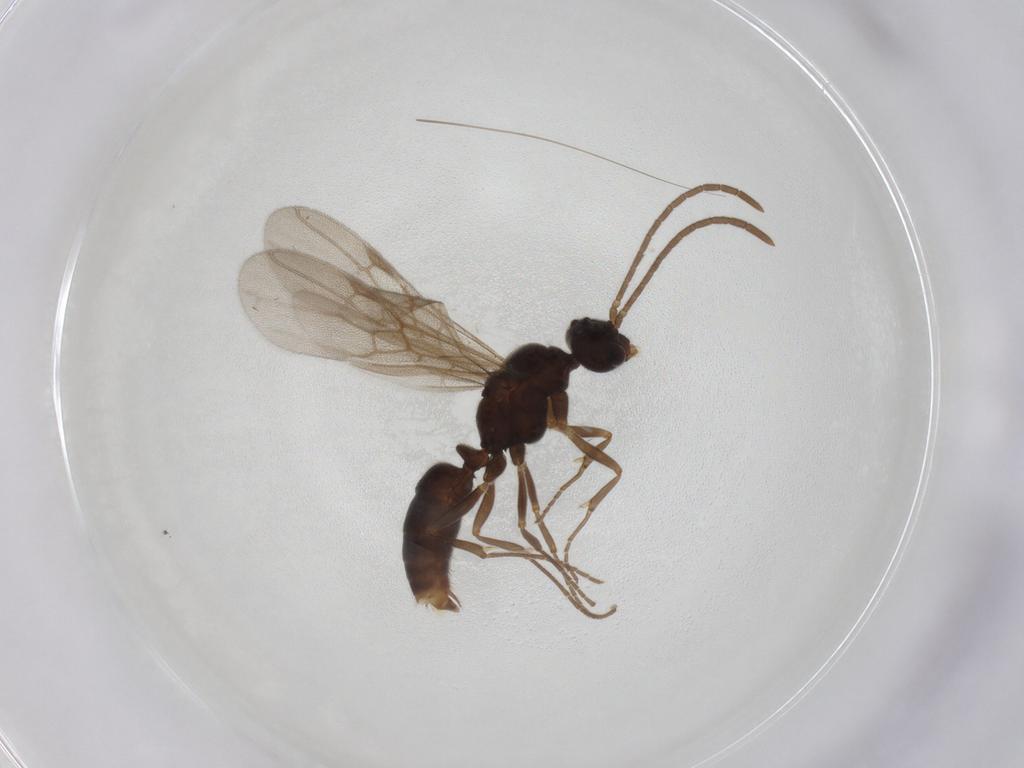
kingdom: Animalia
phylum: Arthropoda
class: Insecta
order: Hymenoptera
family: Formicidae
